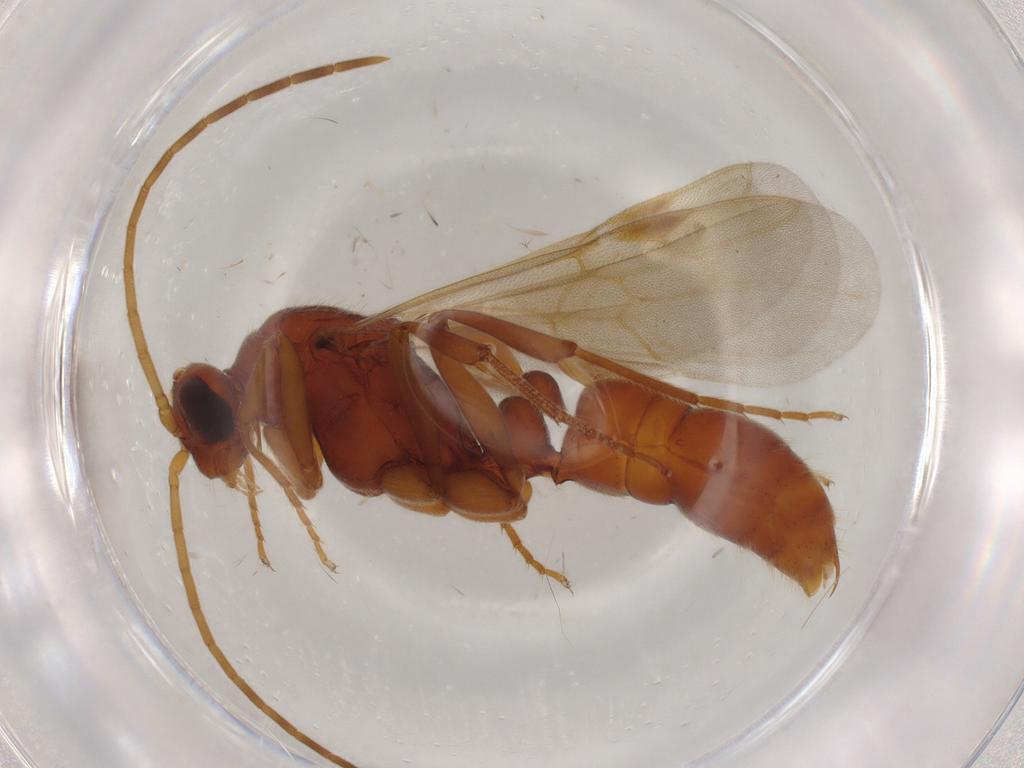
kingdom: Animalia
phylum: Arthropoda
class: Insecta
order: Hymenoptera
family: Formicidae
